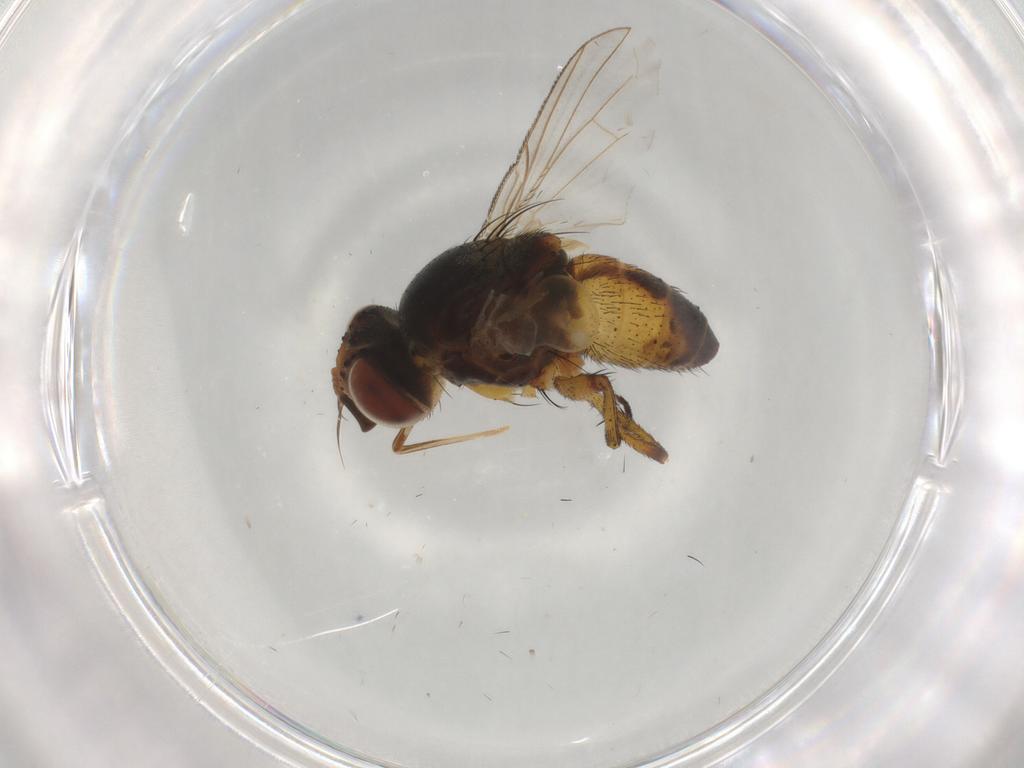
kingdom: Animalia
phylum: Arthropoda
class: Insecta
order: Diptera
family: Tachinidae
